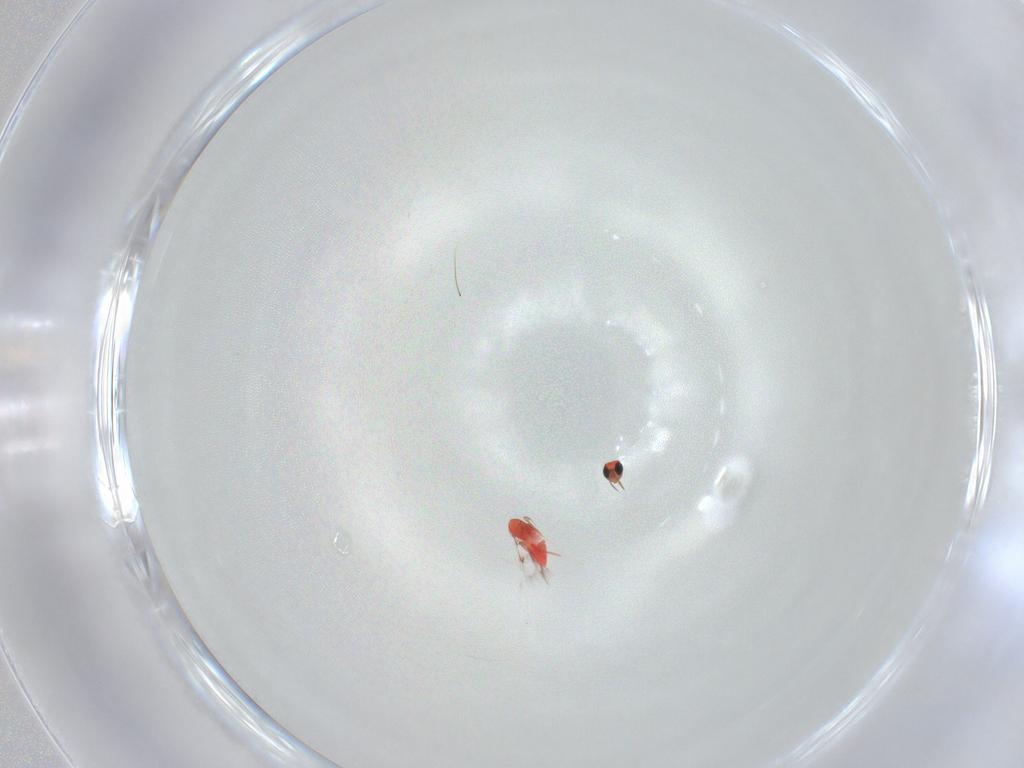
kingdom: Animalia
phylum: Arthropoda
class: Insecta
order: Hymenoptera
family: Trichogrammatidae
